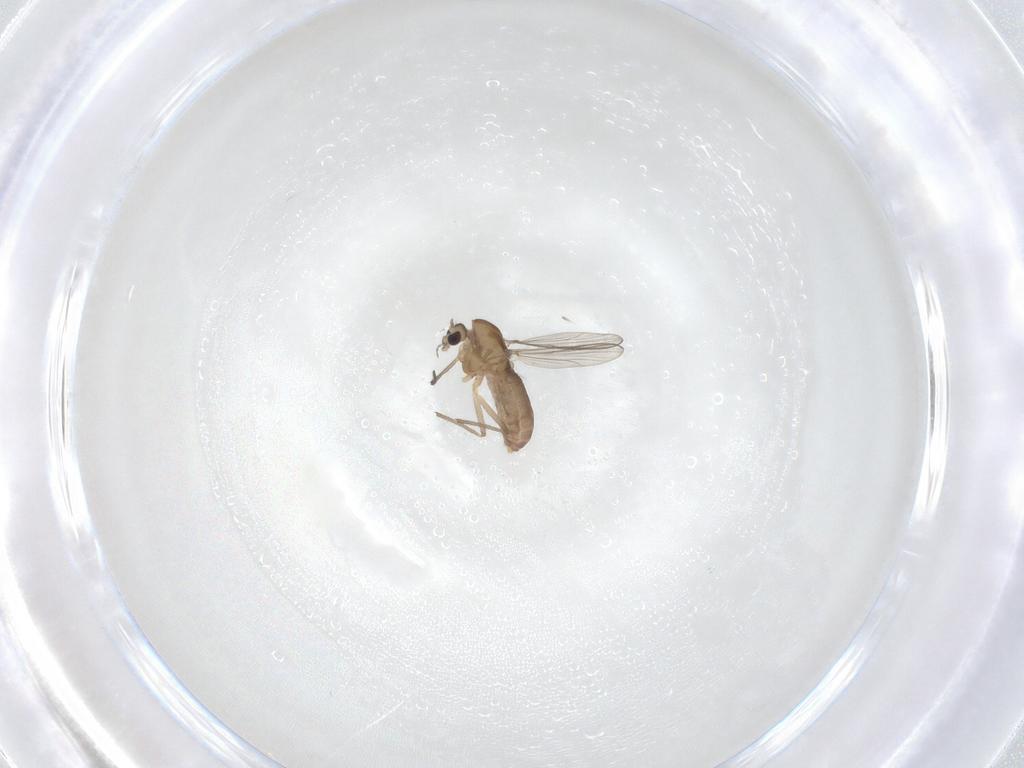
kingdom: Animalia
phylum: Arthropoda
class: Insecta
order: Diptera
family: Chironomidae
